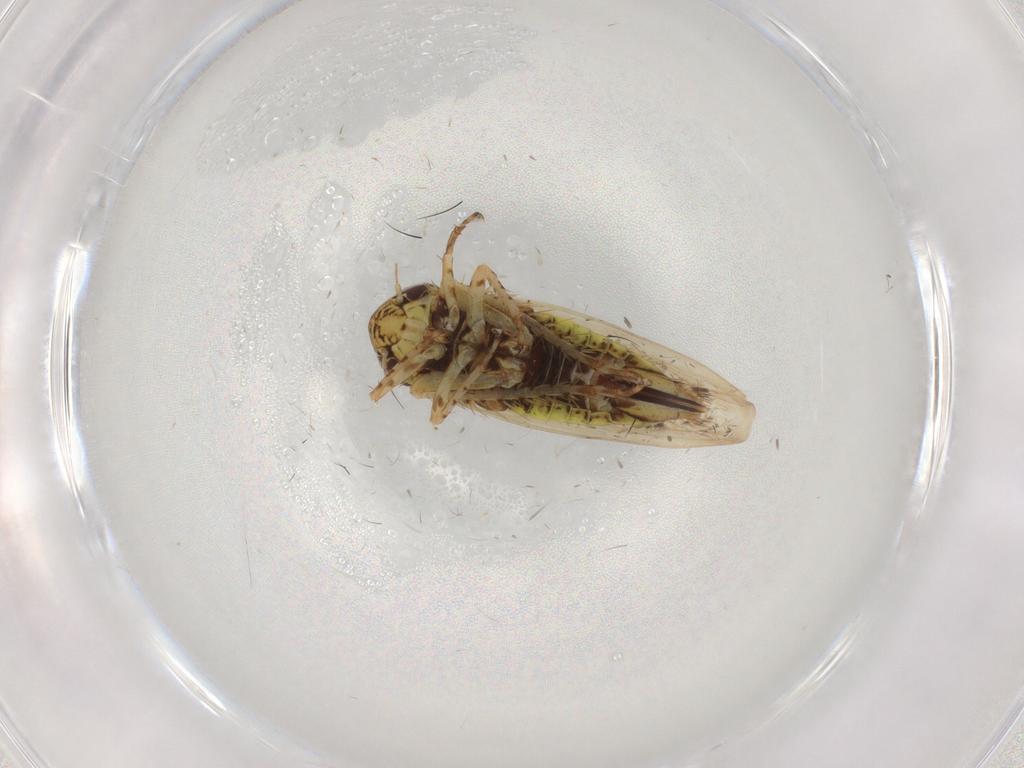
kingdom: Animalia
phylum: Arthropoda
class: Insecta
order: Hemiptera
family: Cicadellidae
